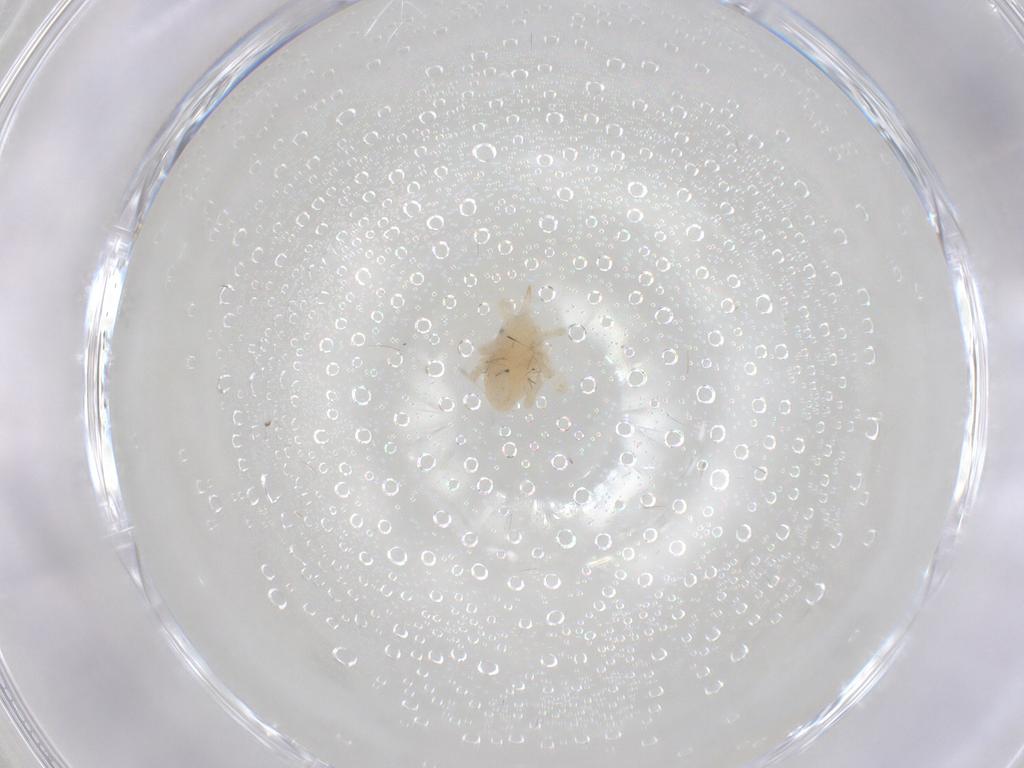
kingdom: Animalia
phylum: Arthropoda
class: Arachnida
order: Trombidiformes
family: Bdellidae
